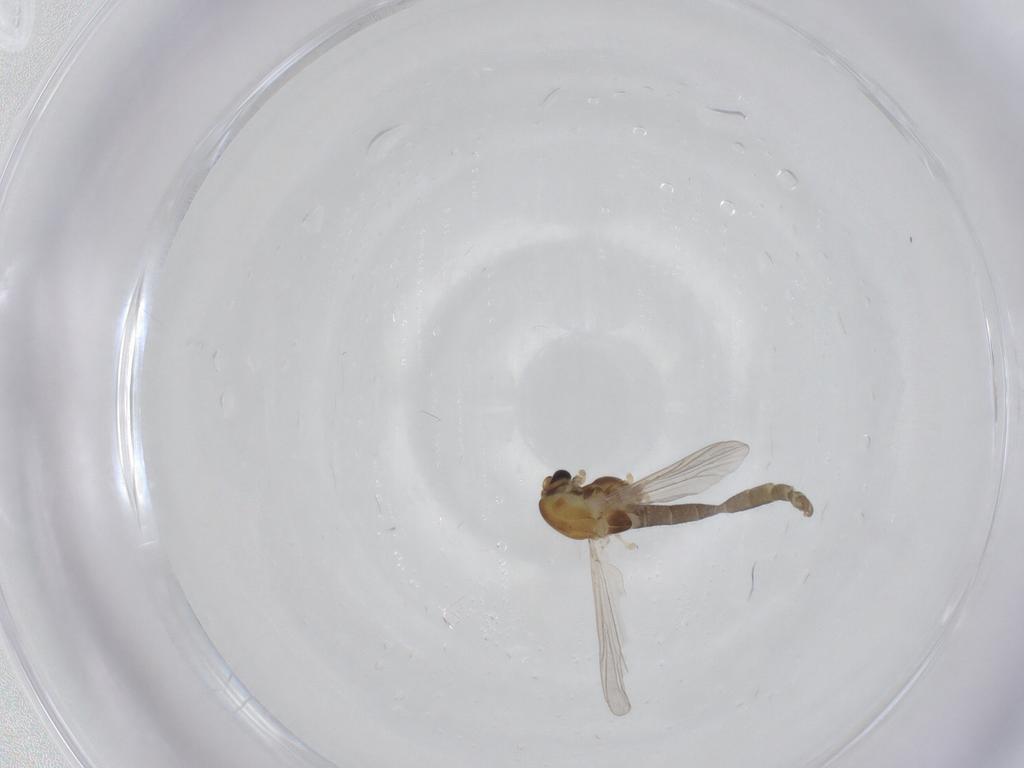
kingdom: Animalia
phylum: Arthropoda
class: Insecta
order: Diptera
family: Chironomidae
